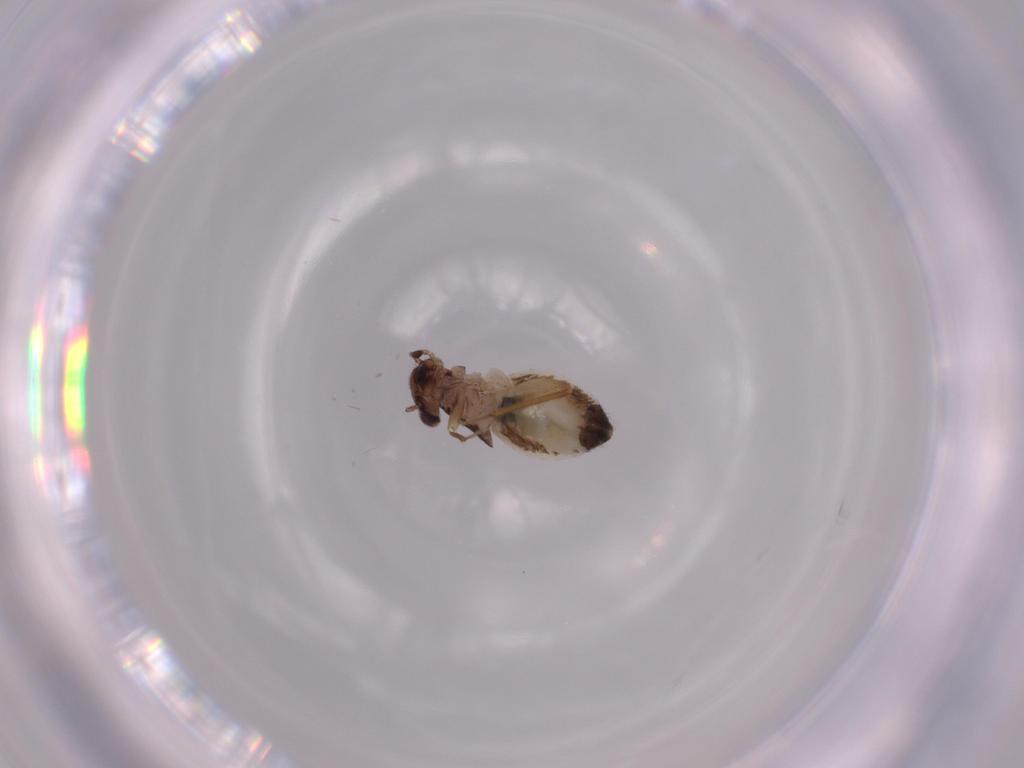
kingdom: Animalia
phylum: Arthropoda
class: Insecta
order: Psocodea
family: Lepidopsocidae
